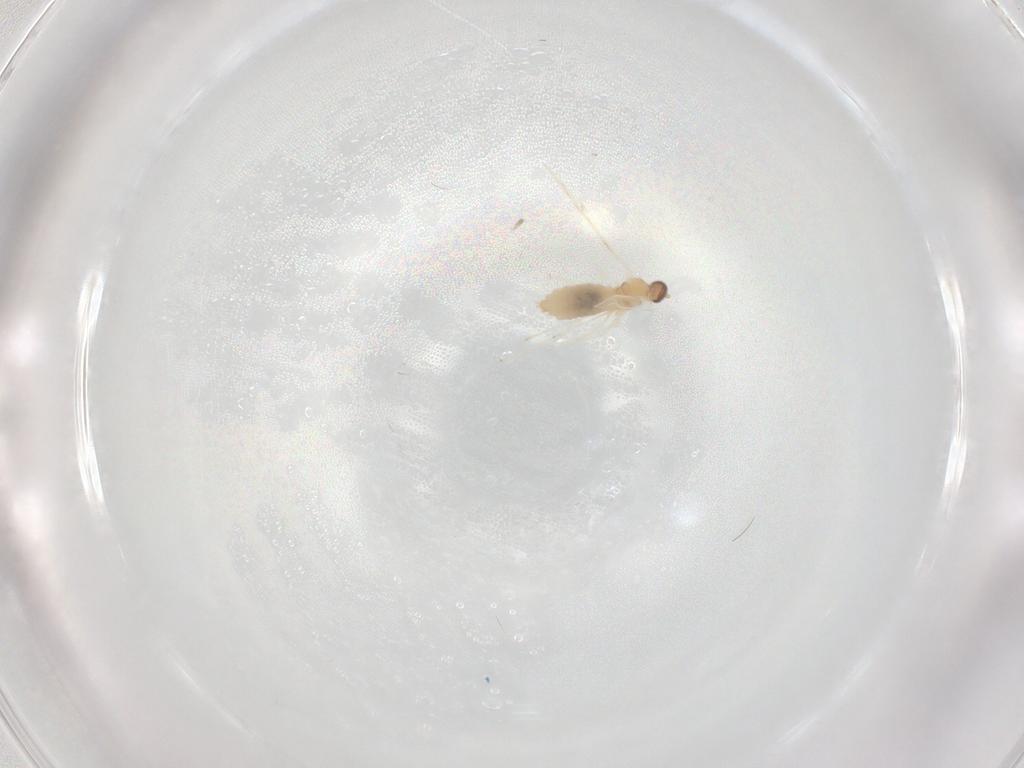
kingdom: Animalia
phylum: Arthropoda
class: Insecta
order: Diptera
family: Cecidomyiidae
